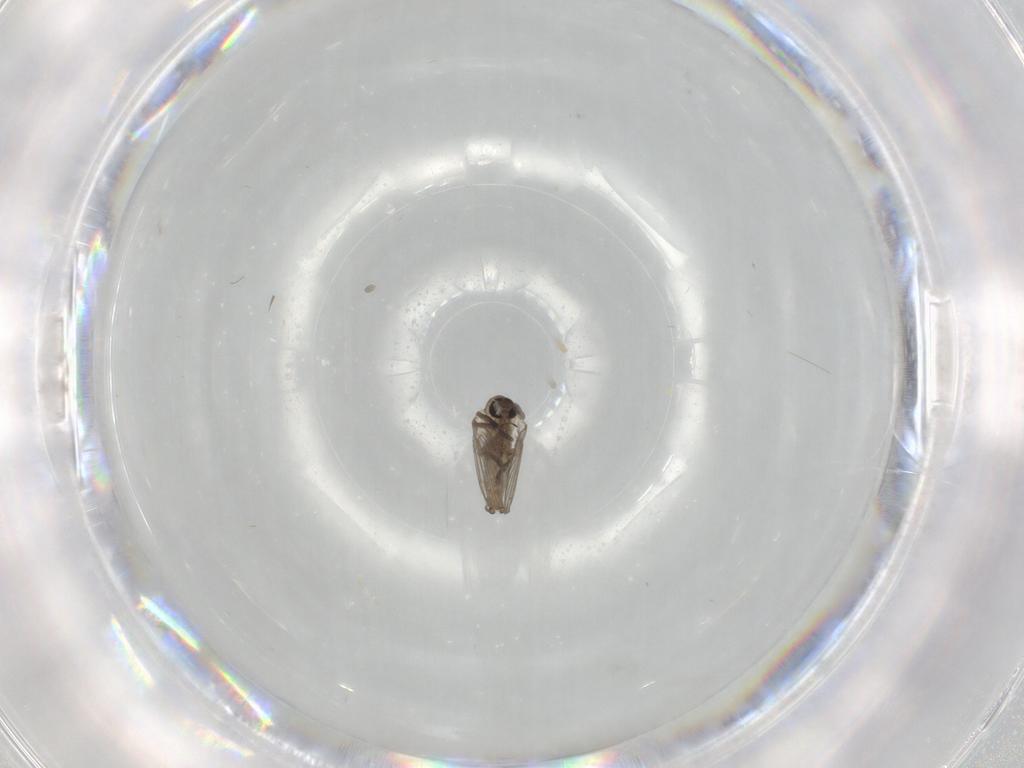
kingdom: Animalia
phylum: Arthropoda
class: Insecta
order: Diptera
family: Psychodidae
